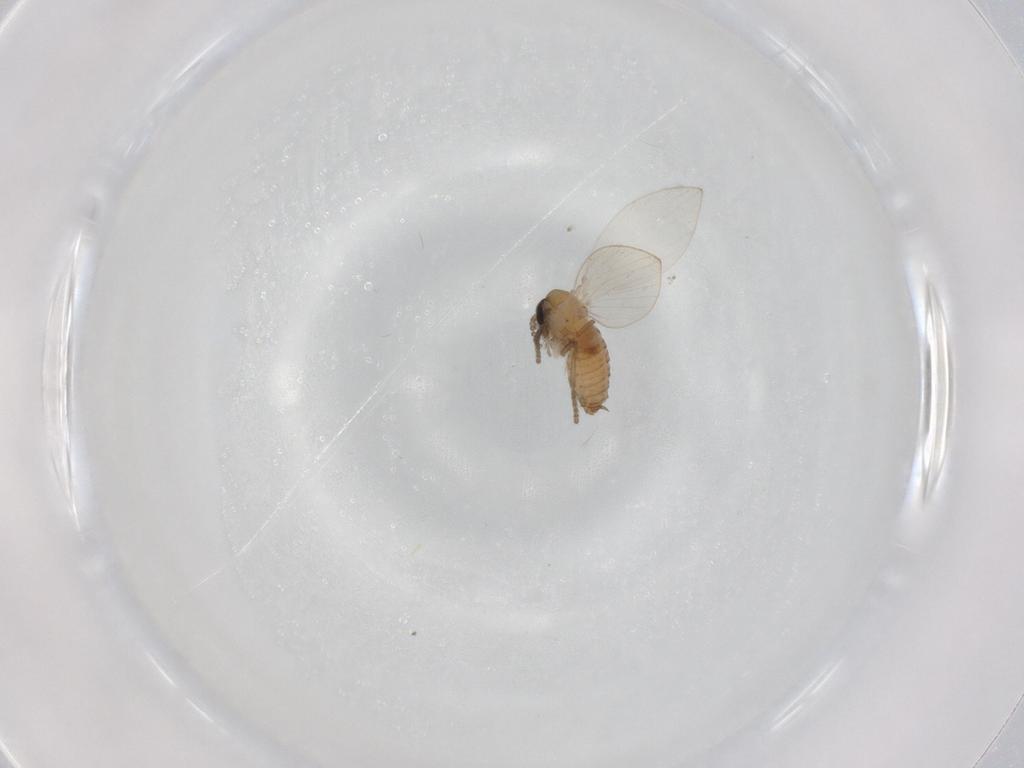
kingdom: Animalia
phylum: Arthropoda
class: Insecta
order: Diptera
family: Psychodidae
